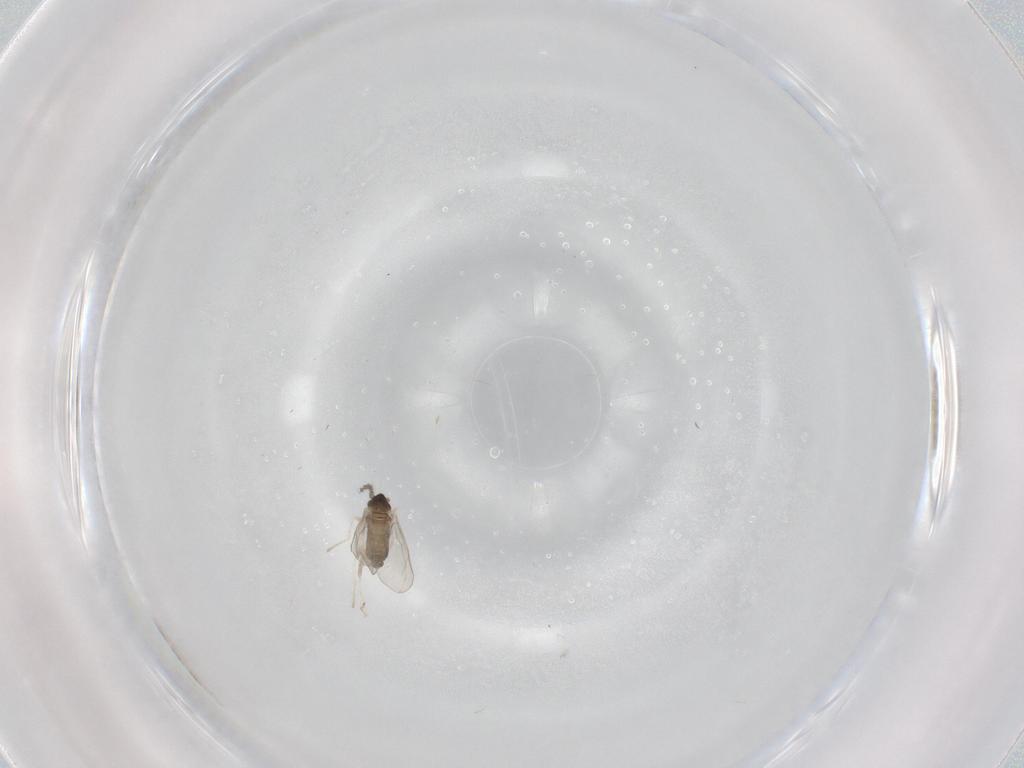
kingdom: Animalia
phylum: Arthropoda
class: Insecta
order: Diptera
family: Cecidomyiidae
